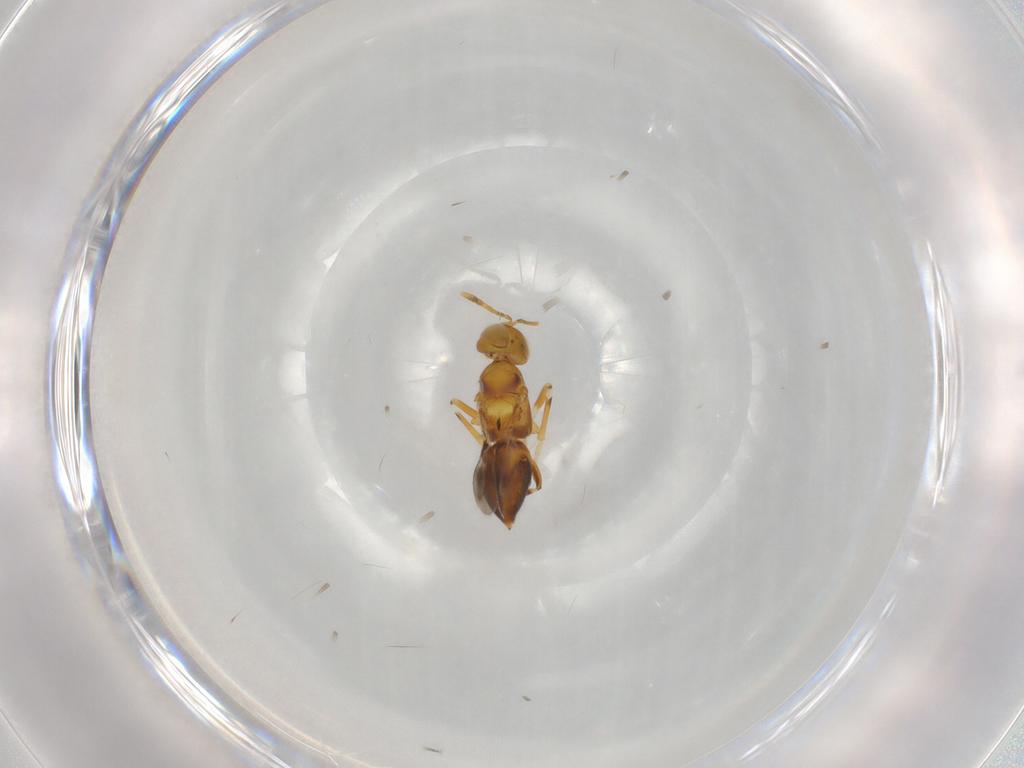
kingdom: Animalia
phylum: Arthropoda
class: Insecta
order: Hymenoptera
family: Encyrtidae
